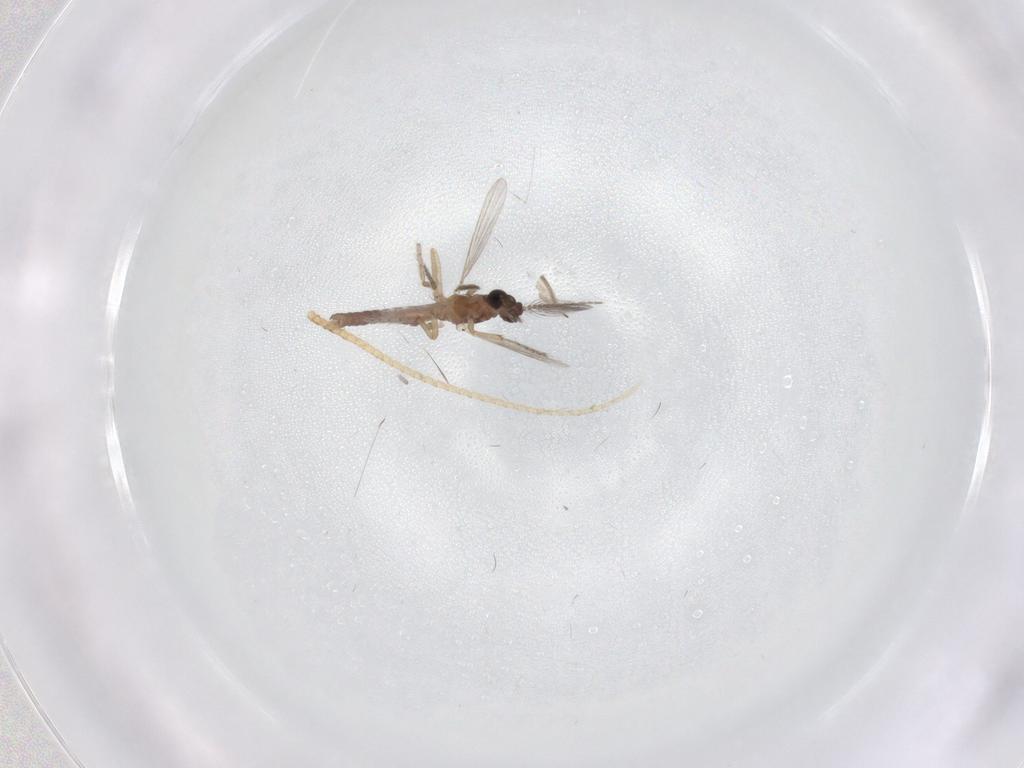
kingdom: Animalia
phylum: Arthropoda
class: Insecta
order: Diptera
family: Ceratopogonidae
